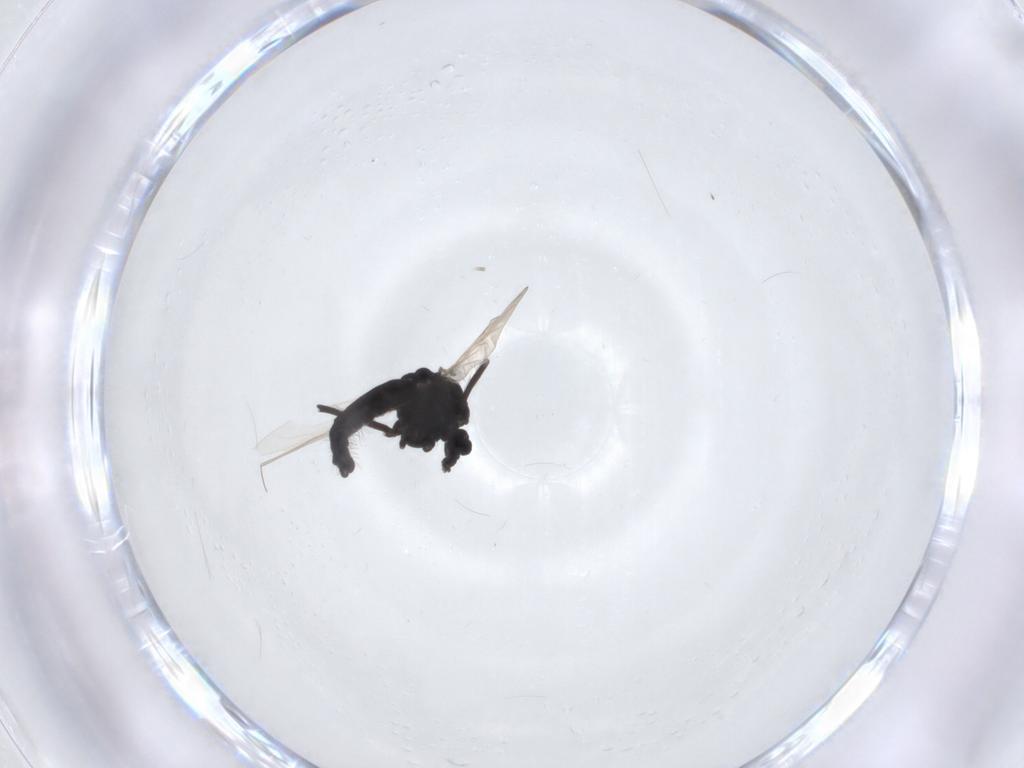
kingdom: Animalia
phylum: Arthropoda
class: Insecta
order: Diptera
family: Chironomidae
